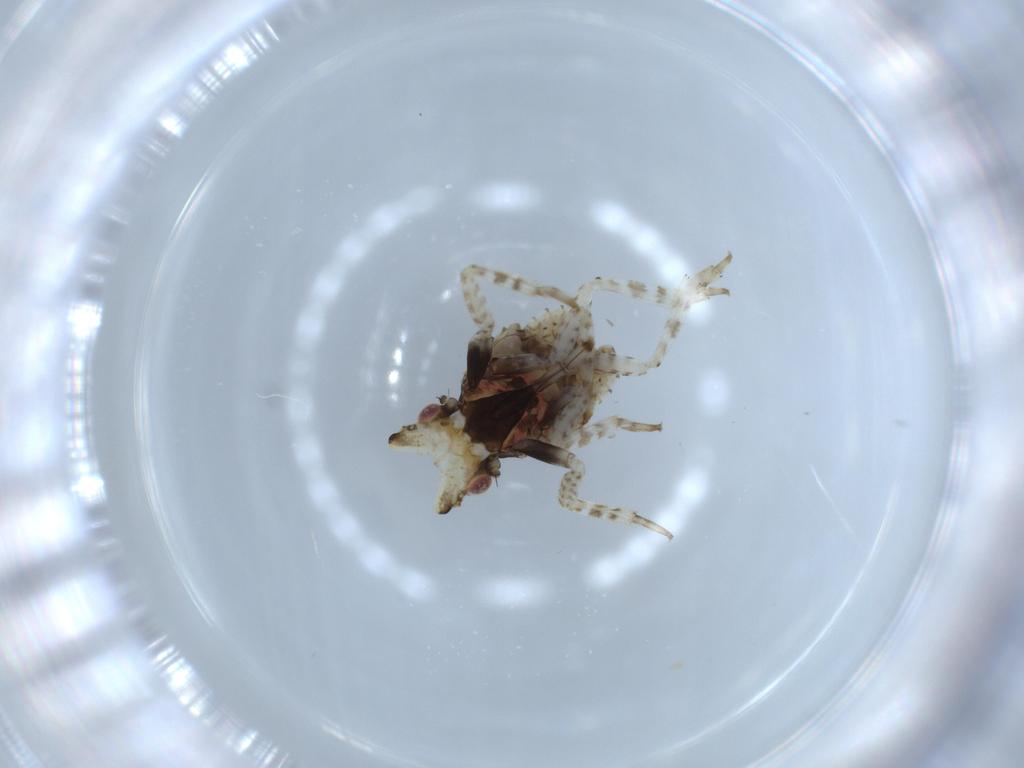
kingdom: Animalia
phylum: Arthropoda
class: Insecta
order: Hemiptera
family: Fulgoridae
